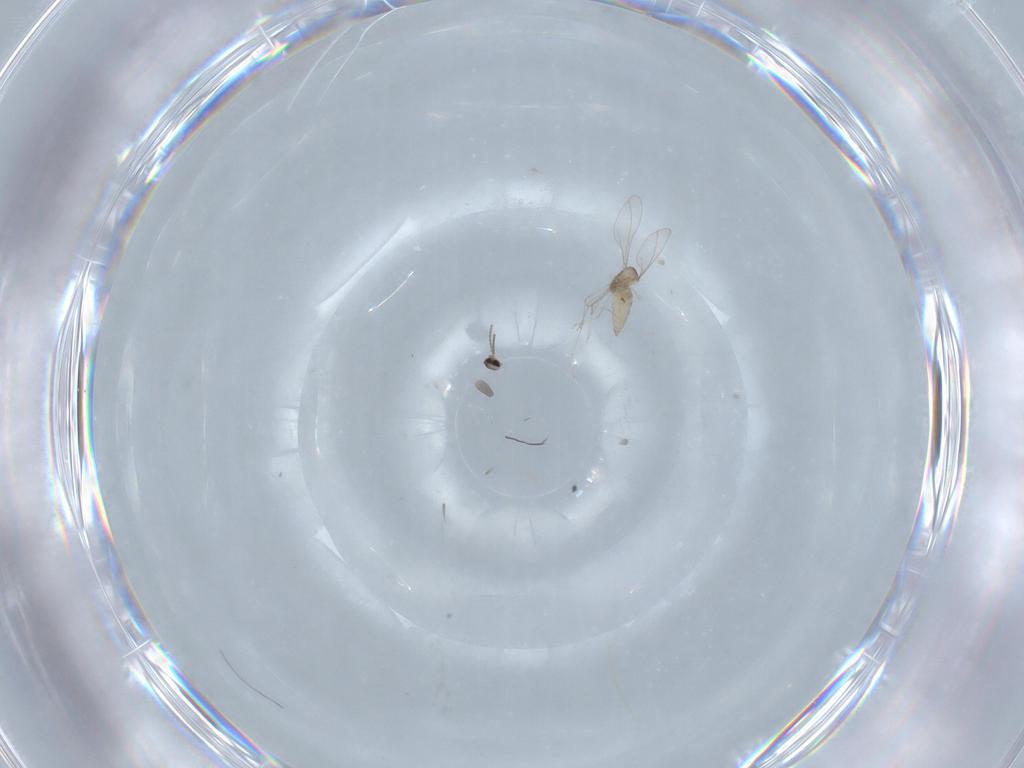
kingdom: Animalia
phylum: Arthropoda
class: Insecta
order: Diptera
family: Cecidomyiidae
